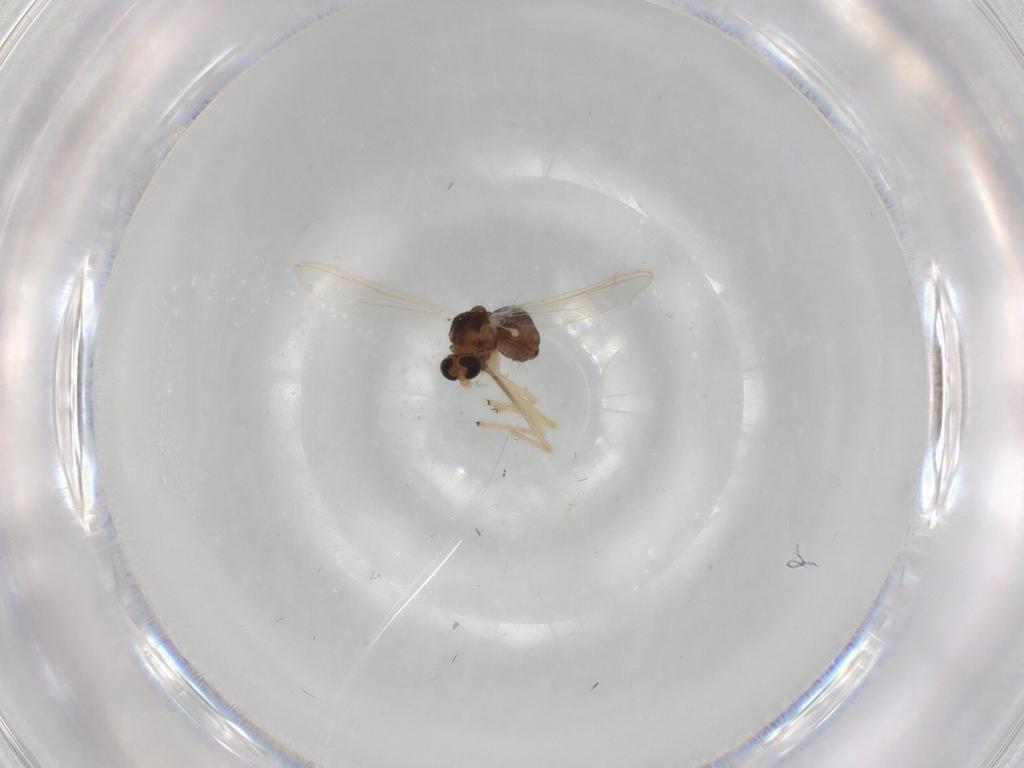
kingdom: Animalia
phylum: Arthropoda
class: Insecta
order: Diptera
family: Chironomidae
